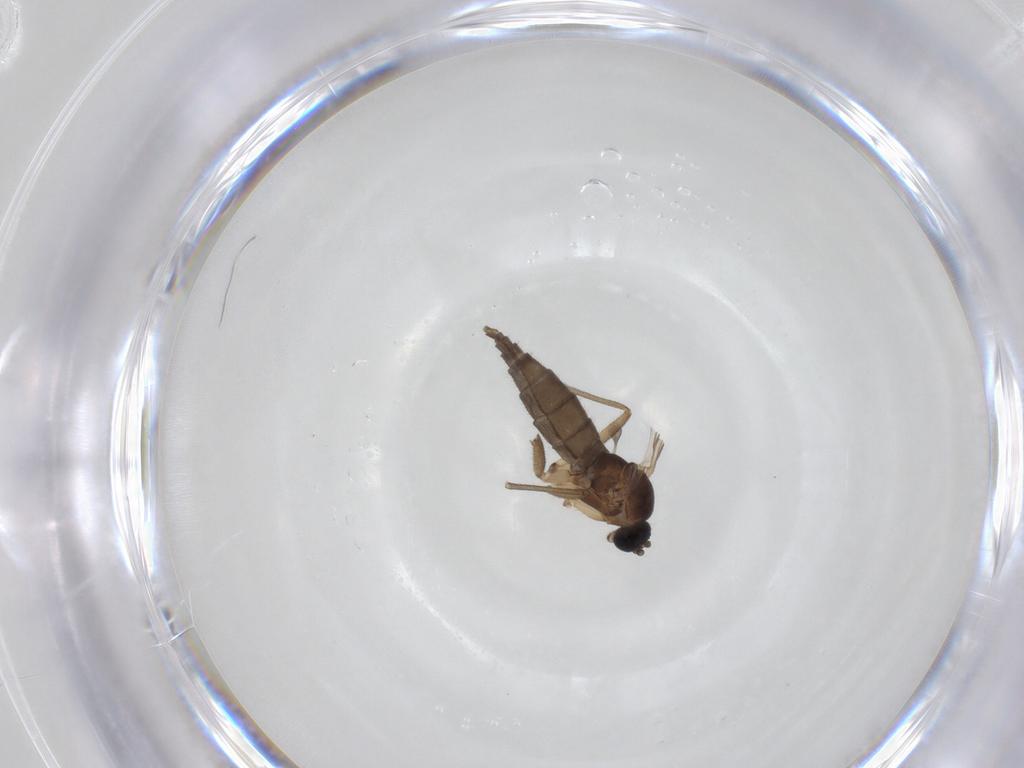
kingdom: Animalia
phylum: Arthropoda
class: Insecta
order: Diptera
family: Sciaridae
